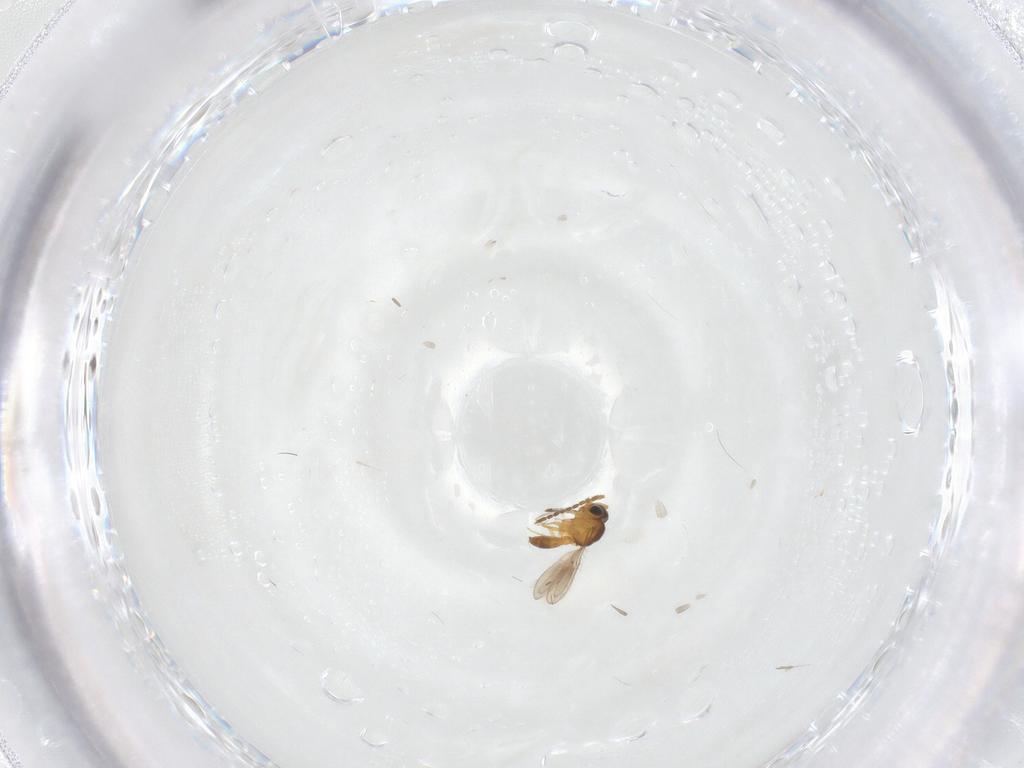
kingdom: Animalia
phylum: Arthropoda
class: Insecta
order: Hymenoptera
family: Scelionidae
